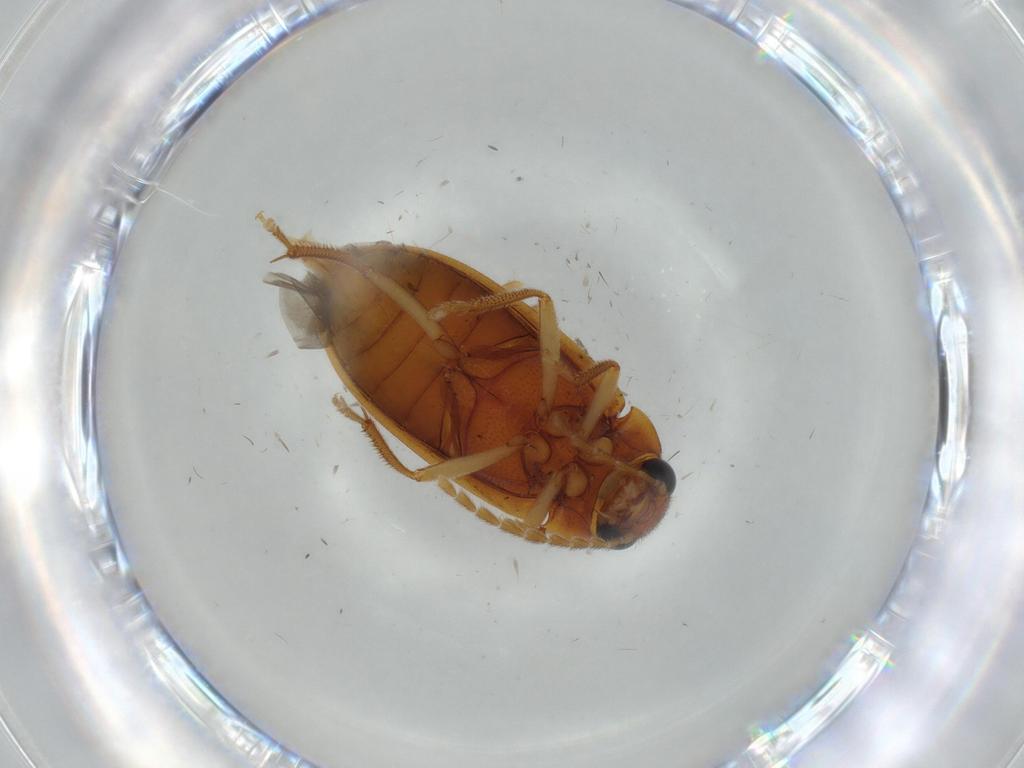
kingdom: Animalia
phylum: Arthropoda
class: Insecta
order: Coleoptera
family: Ptilodactylidae
